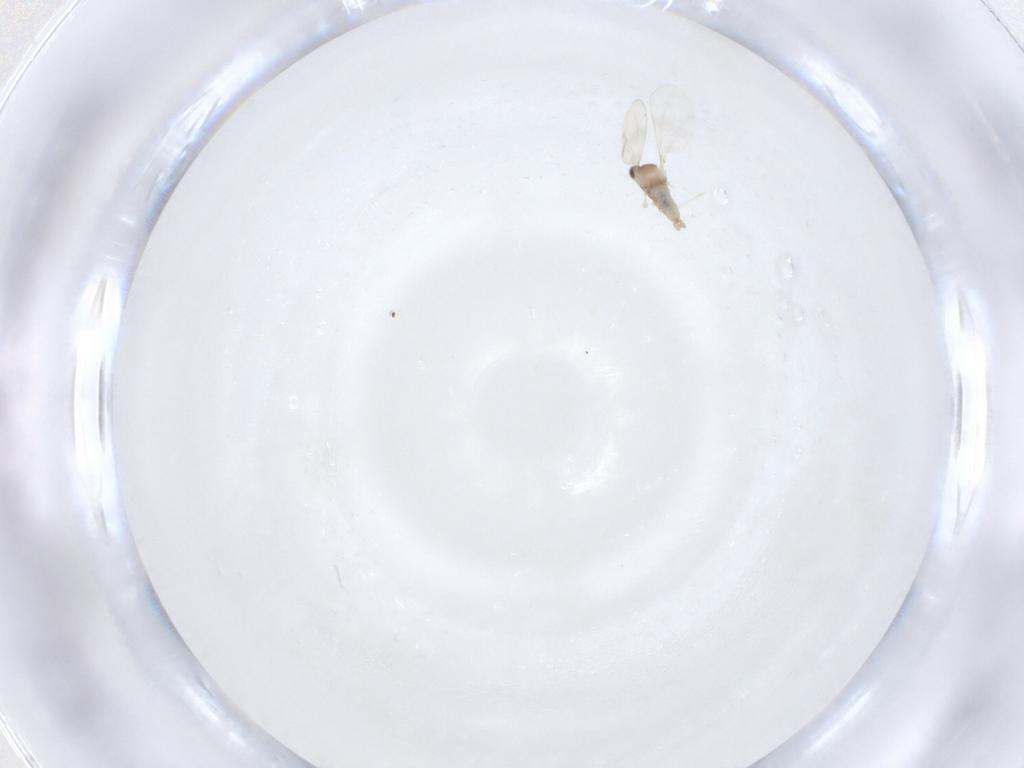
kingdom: Animalia
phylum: Arthropoda
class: Insecta
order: Diptera
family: Cecidomyiidae
